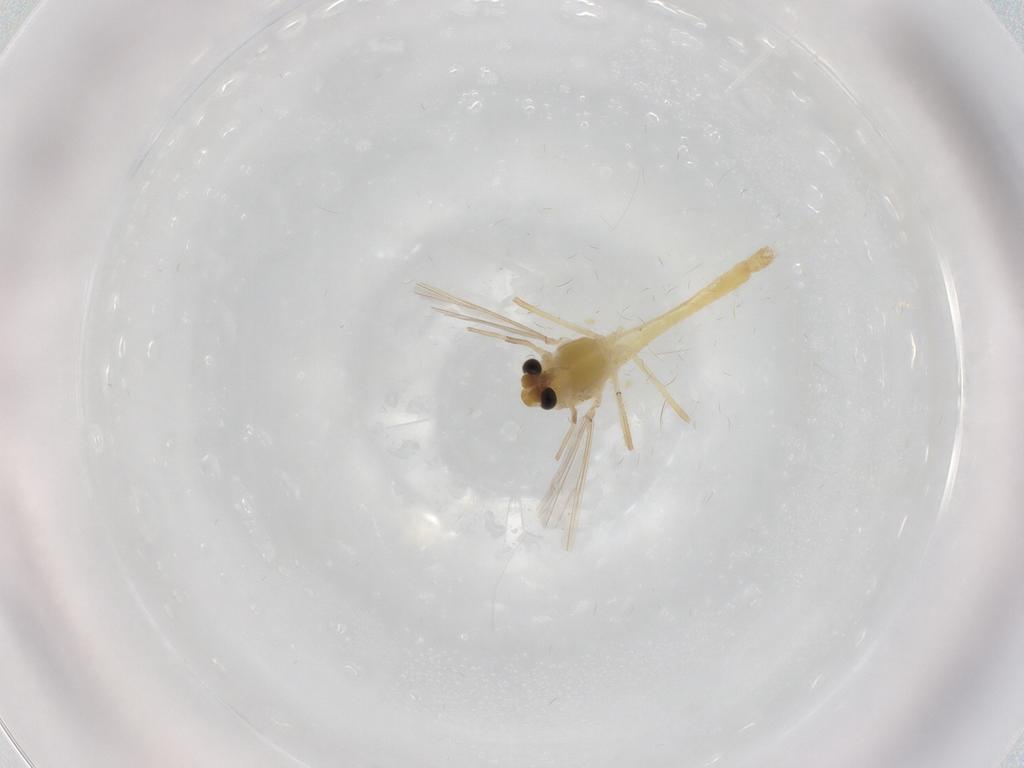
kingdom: Animalia
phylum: Arthropoda
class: Insecta
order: Diptera
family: Chironomidae
